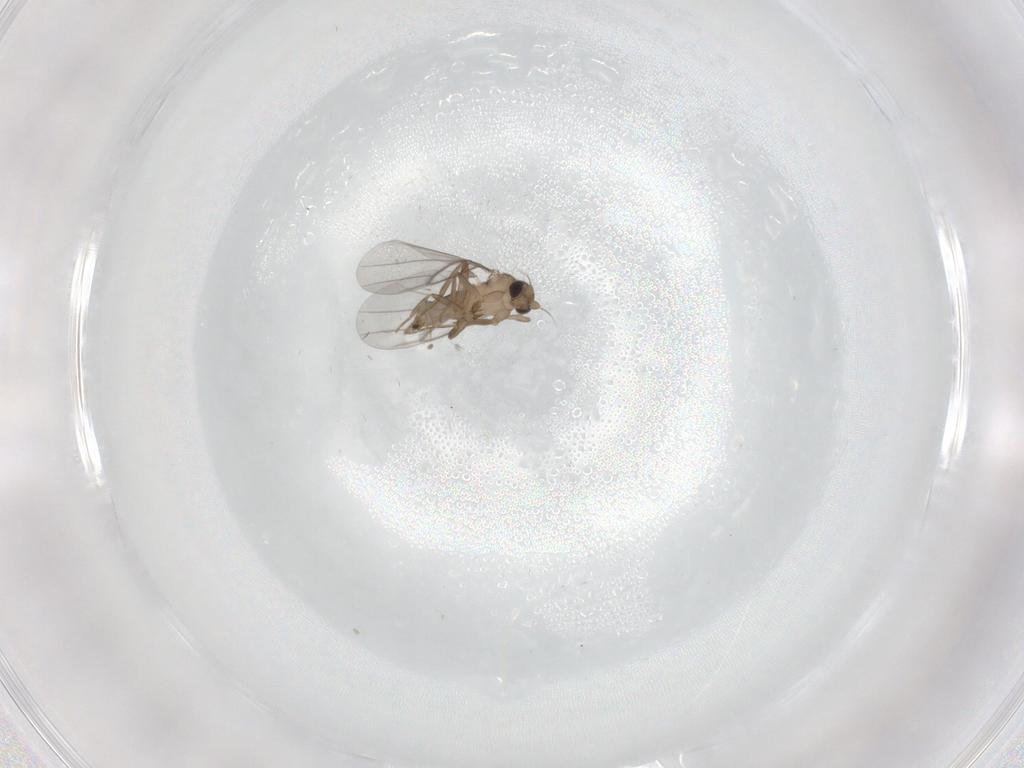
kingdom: Animalia
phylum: Arthropoda
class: Insecta
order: Diptera
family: Sciaridae
